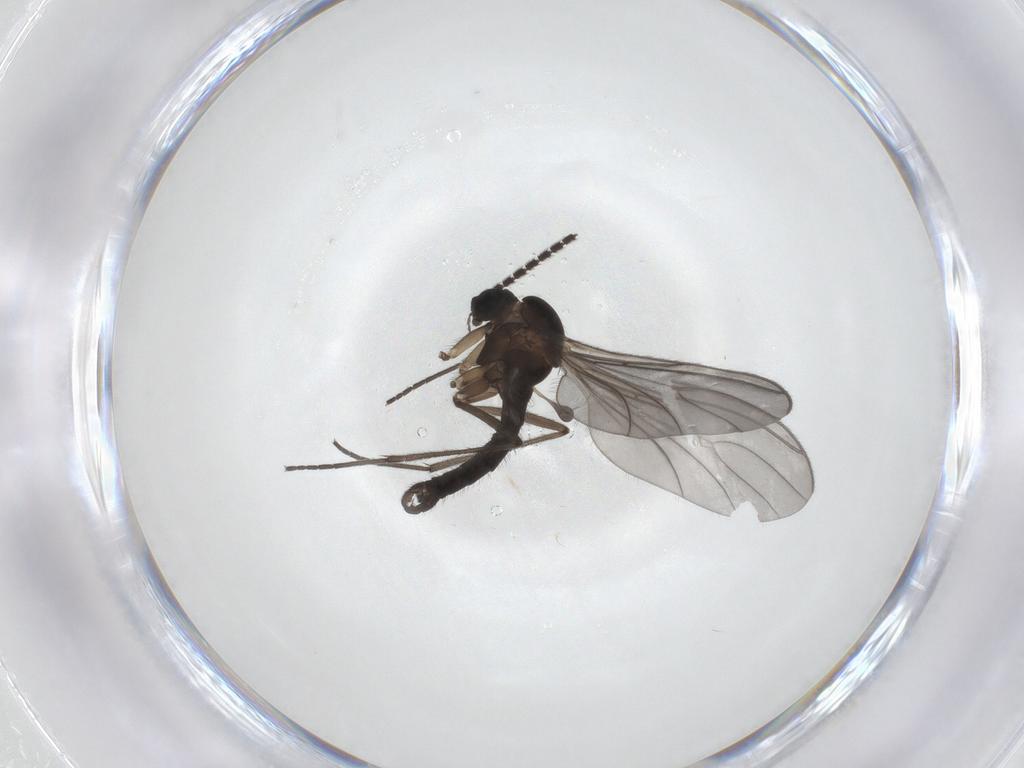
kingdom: Animalia
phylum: Arthropoda
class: Insecta
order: Diptera
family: Sciaridae
